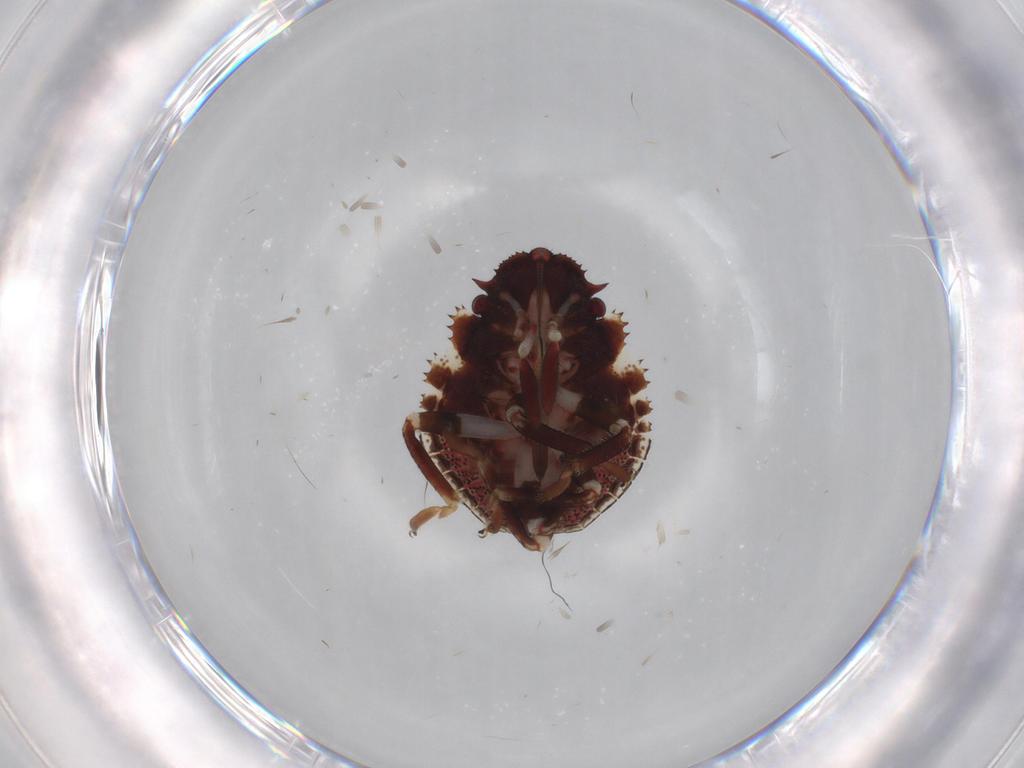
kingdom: Animalia
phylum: Arthropoda
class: Insecta
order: Hemiptera
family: Scutelleridae
